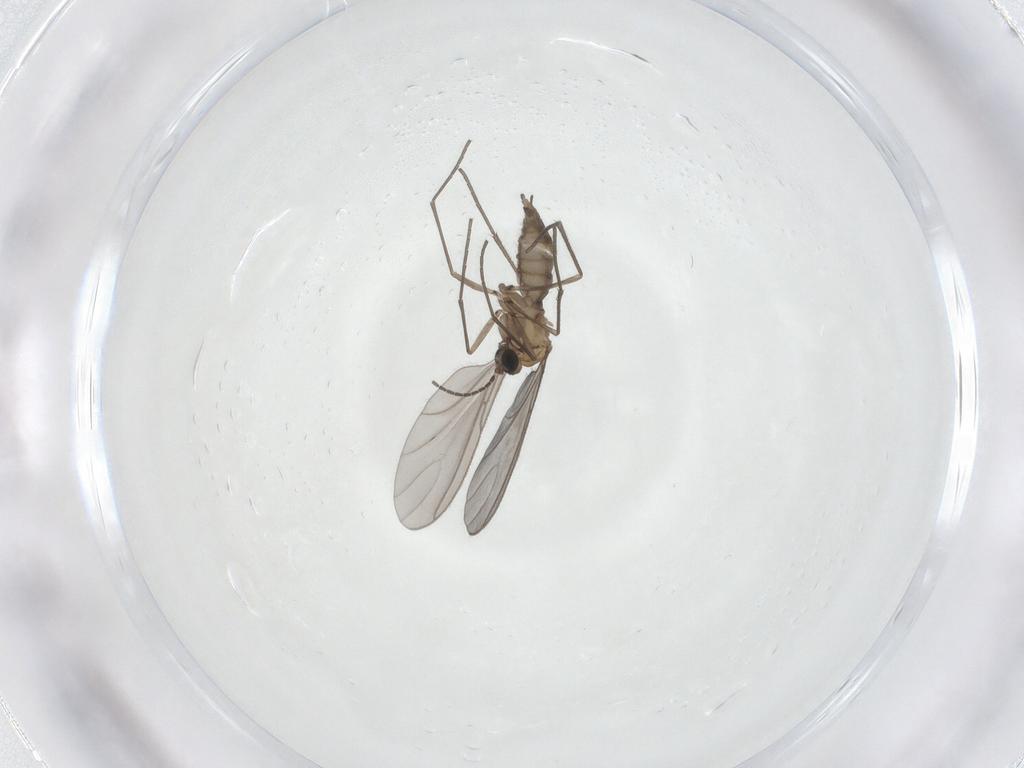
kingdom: Animalia
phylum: Arthropoda
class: Insecta
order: Diptera
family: Sciaridae
